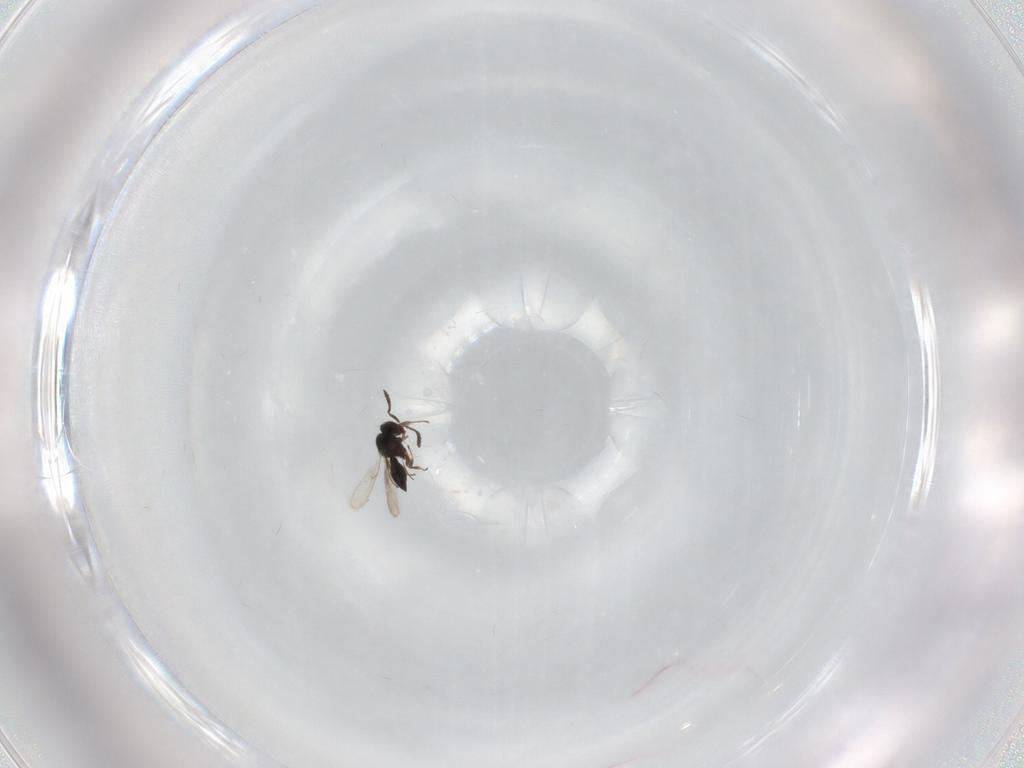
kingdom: Animalia
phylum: Arthropoda
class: Insecta
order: Hymenoptera
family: Scelionidae
